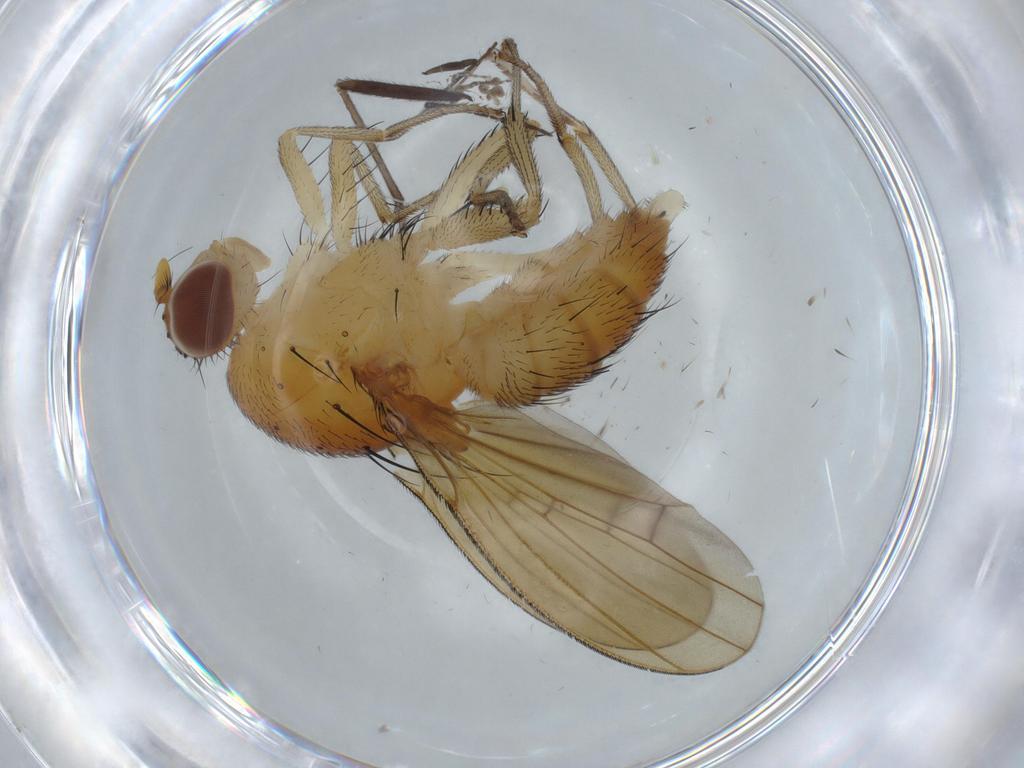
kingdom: Animalia
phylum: Arthropoda
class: Insecta
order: Diptera
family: Lauxaniidae
